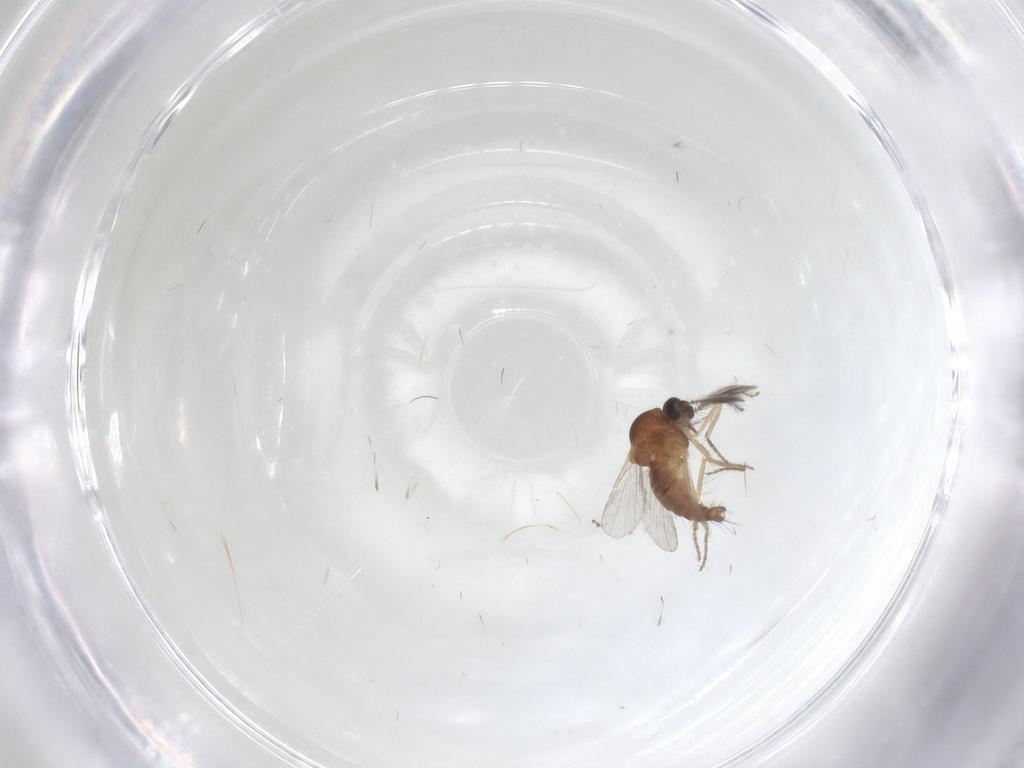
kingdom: Animalia
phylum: Arthropoda
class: Insecta
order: Diptera
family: Ceratopogonidae
